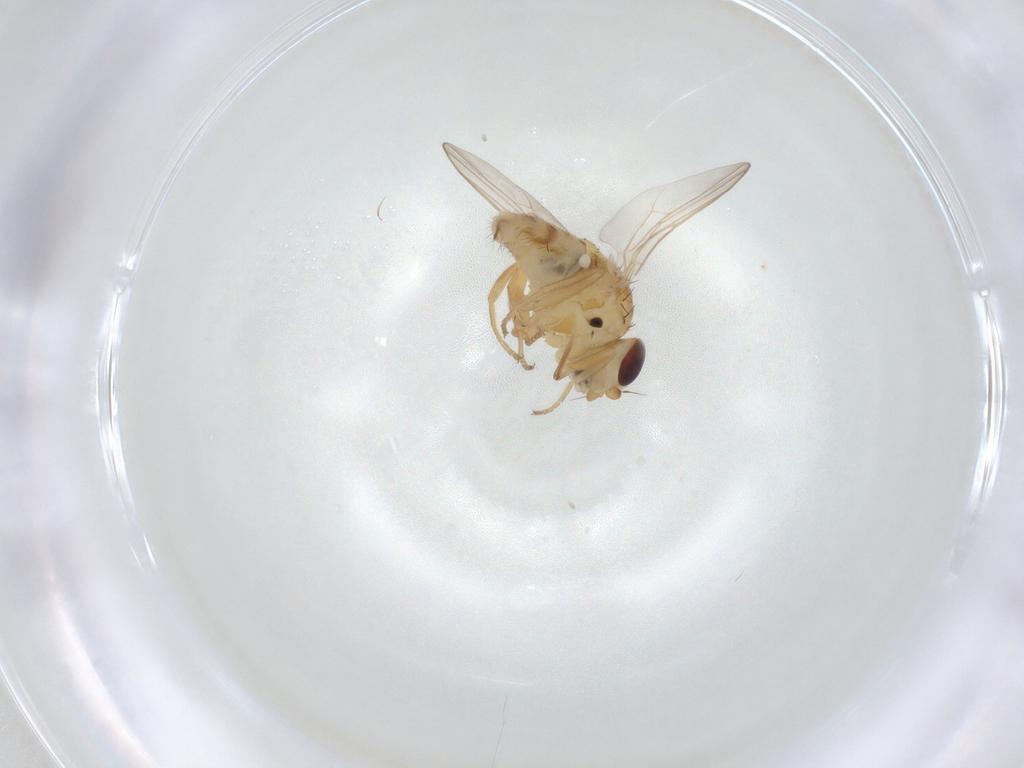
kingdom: Animalia
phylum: Arthropoda
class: Insecta
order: Diptera
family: Chloropidae
